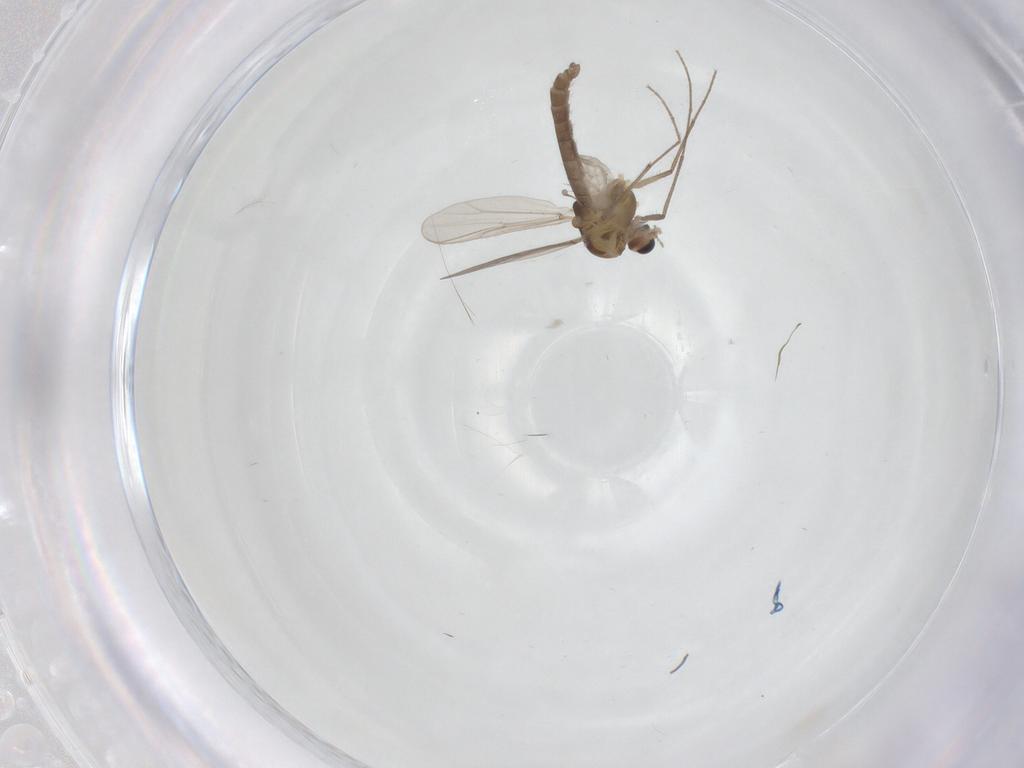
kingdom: Animalia
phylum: Arthropoda
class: Insecta
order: Diptera
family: Chironomidae
